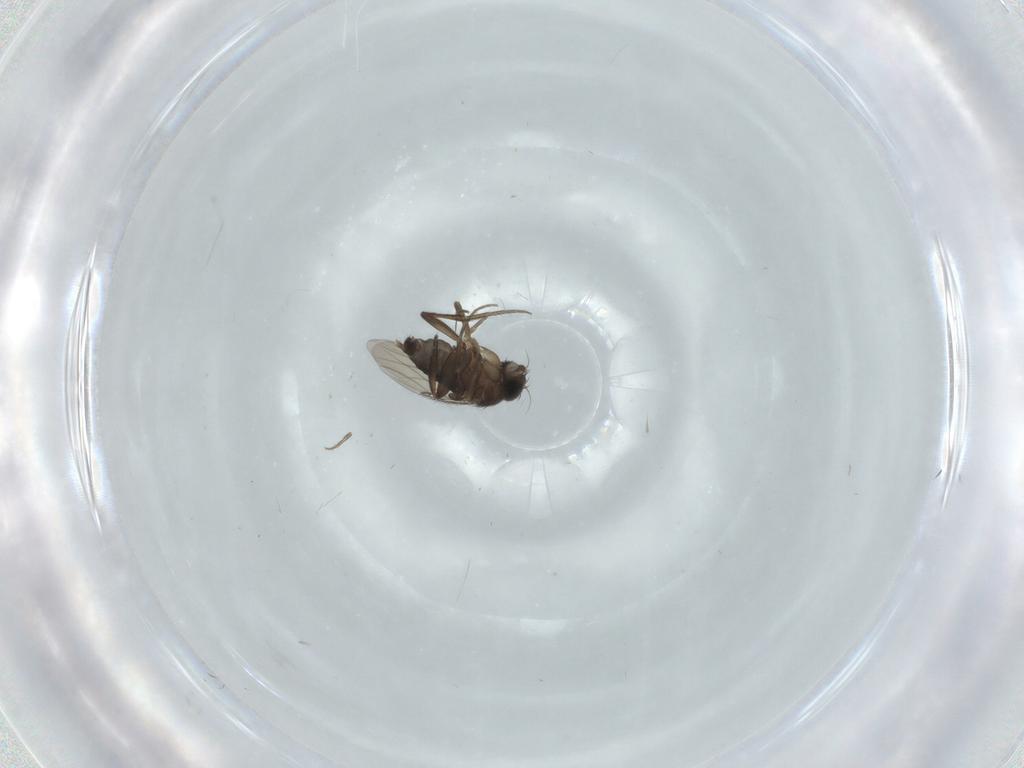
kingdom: Animalia
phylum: Arthropoda
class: Insecta
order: Diptera
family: Phoridae
